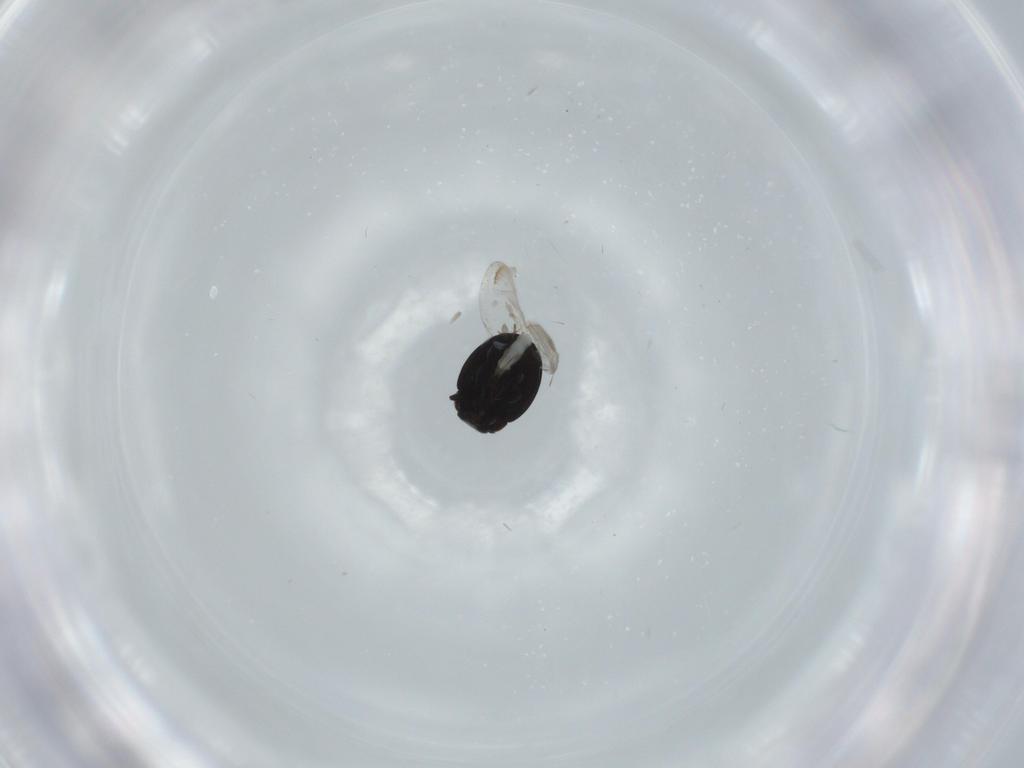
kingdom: Animalia
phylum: Arthropoda
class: Insecta
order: Coleoptera
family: Coccinellidae
